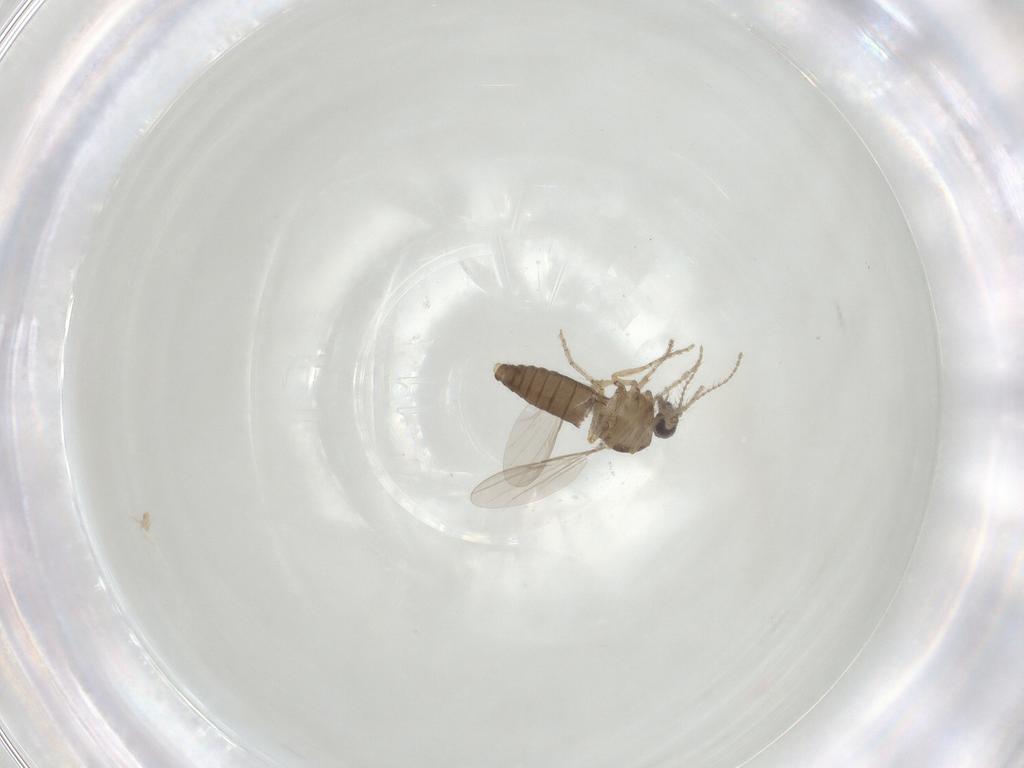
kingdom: Animalia
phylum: Arthropoda
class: Insecta
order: Diptera
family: Ceratopogonidae
